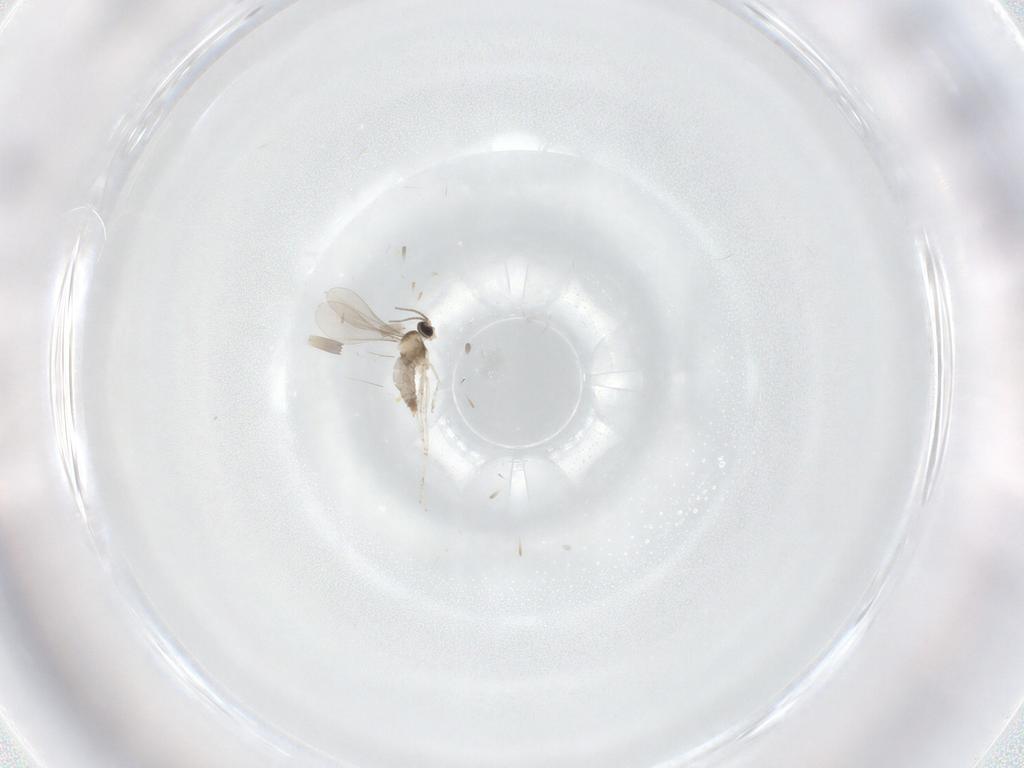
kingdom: Animalia
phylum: Arthropoda
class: Insecta
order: Diptera
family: Cecidomyiidae
